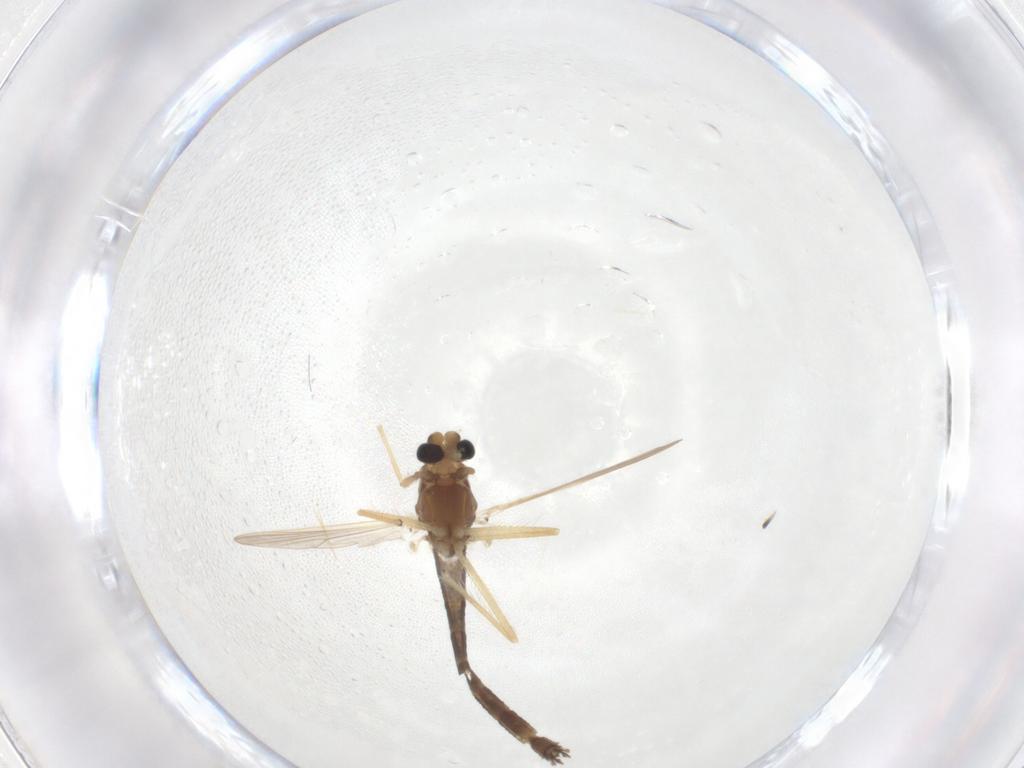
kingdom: Animalia
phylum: Arthropoda
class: Insecta
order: Diptera
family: Chironomidae
